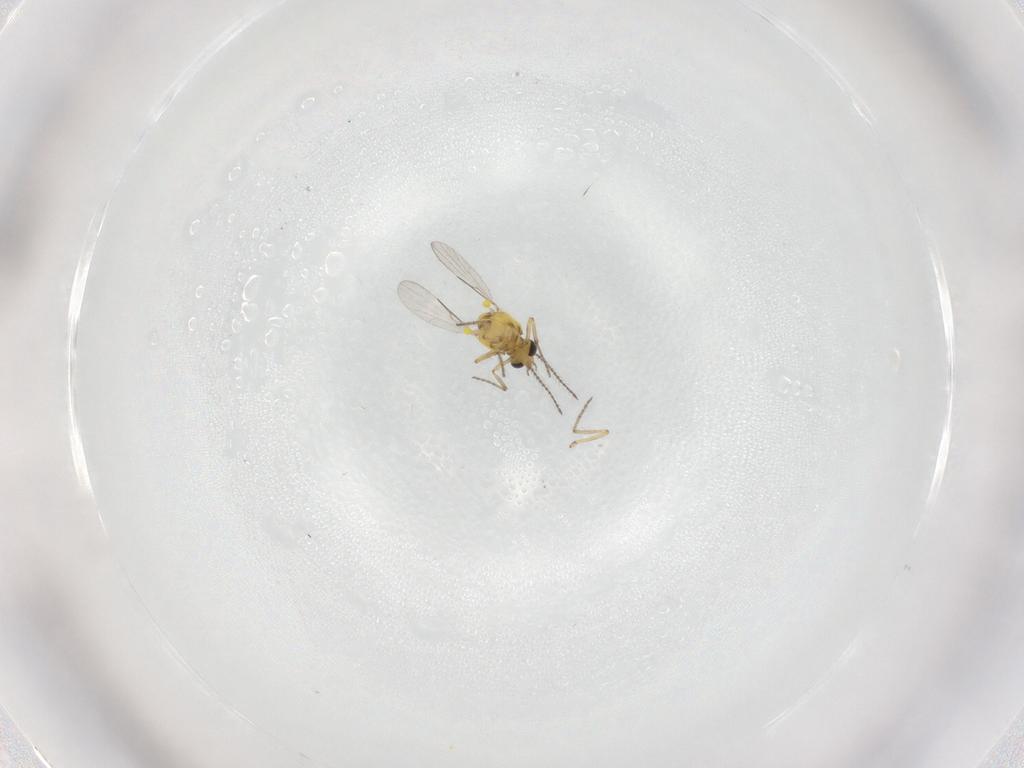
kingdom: Animalia
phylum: Arthropoda
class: Insecta
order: Diptera
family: Ceratopogonidae
